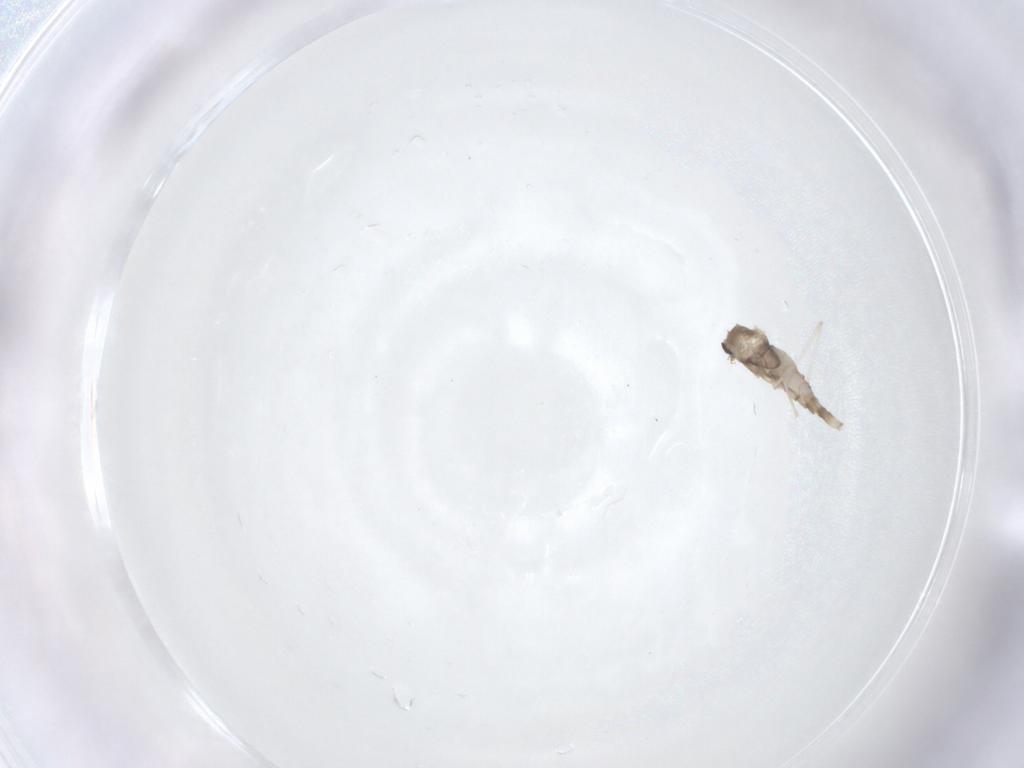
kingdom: Animalia
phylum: Arthropoda
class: Insecta
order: Diptera
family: Cecidomyiidae
